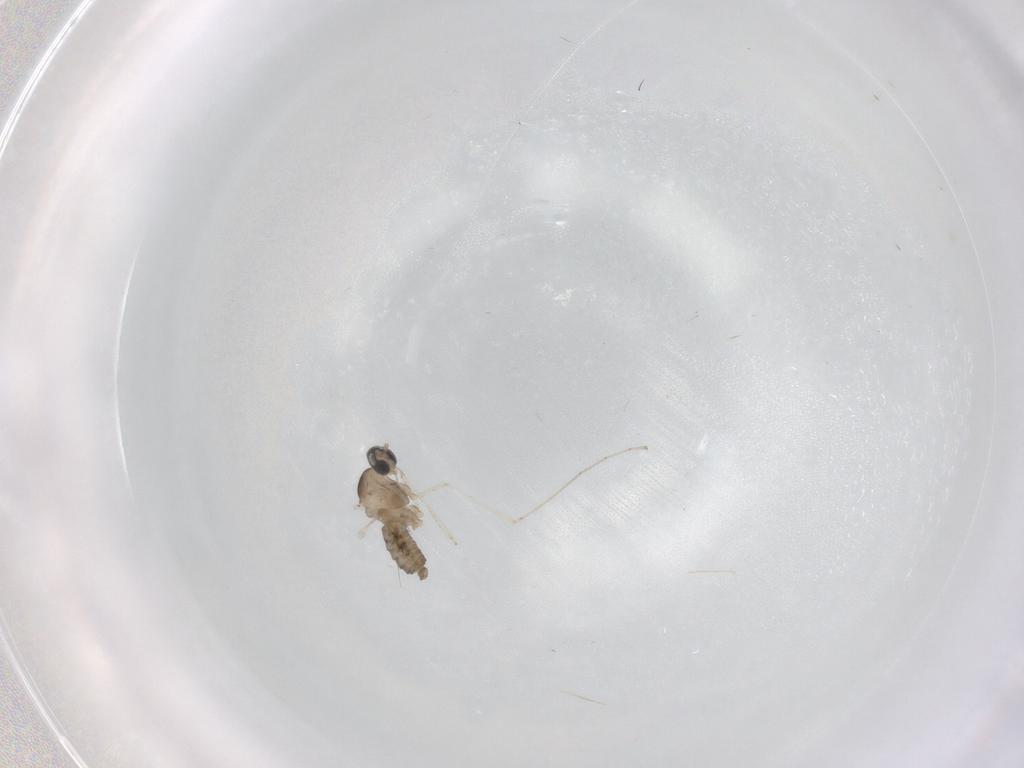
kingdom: Animalia
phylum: Arthropoda
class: Insecta
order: Diptera
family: Cecidomyiidae
